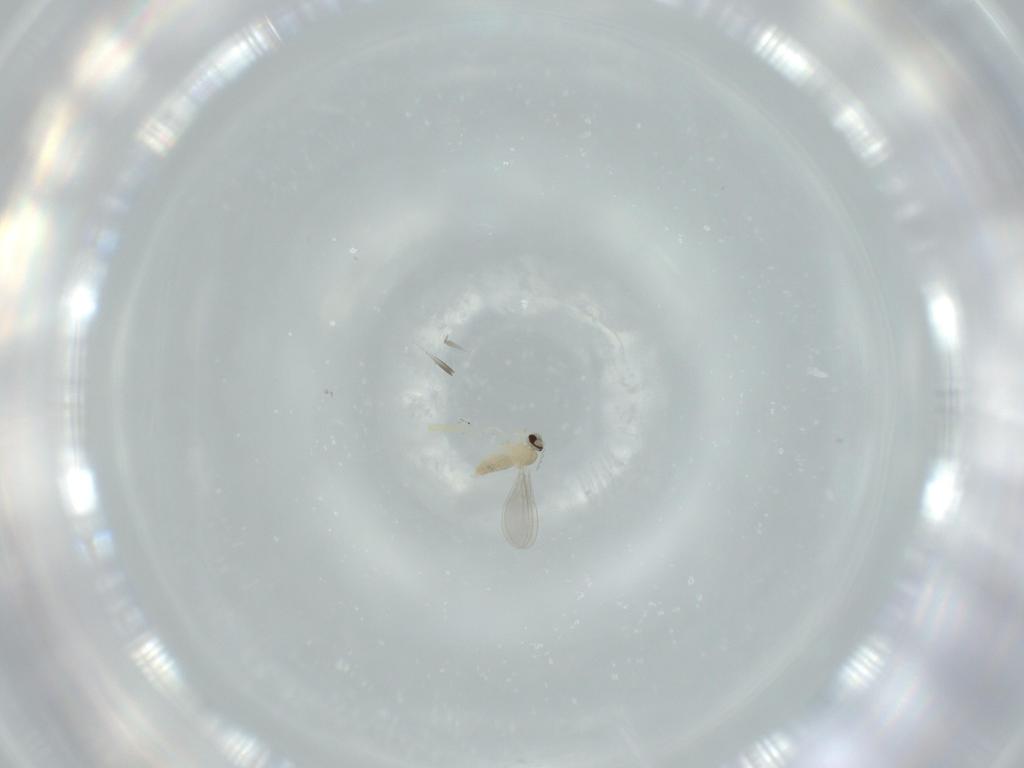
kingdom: Animalia
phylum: Arthropoda
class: Insecta
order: Diptera
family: Cecidomyiidae
